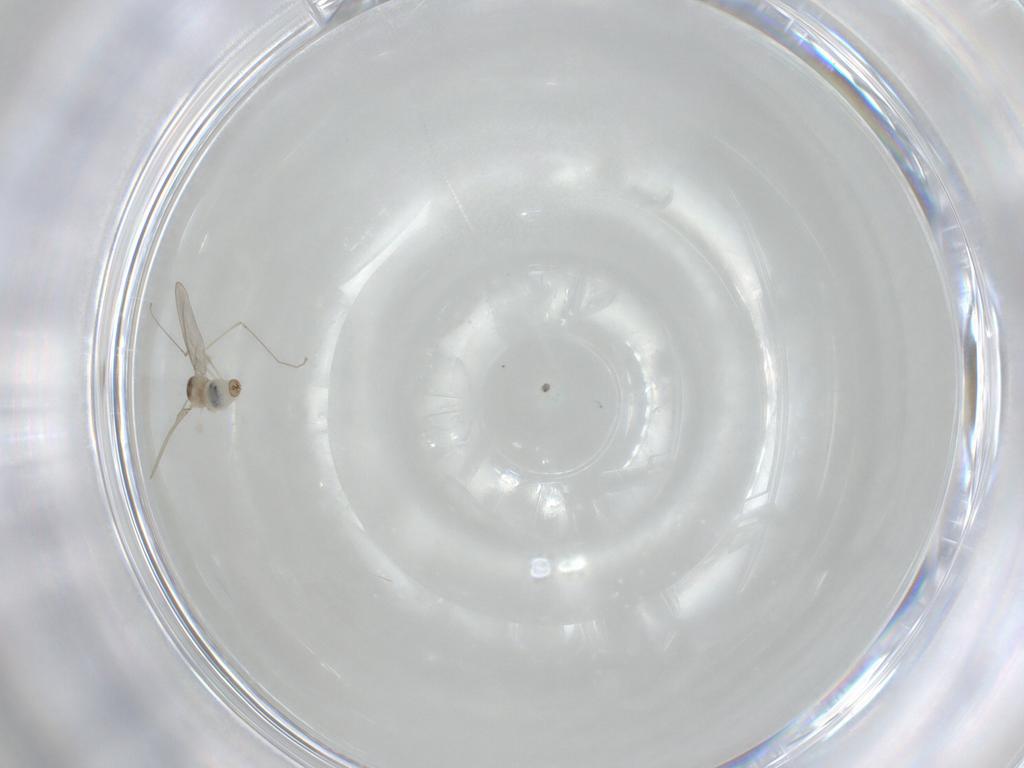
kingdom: Animalia
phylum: Arthropoda
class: Insecta
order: Diptera
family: Cecidomyiidae
